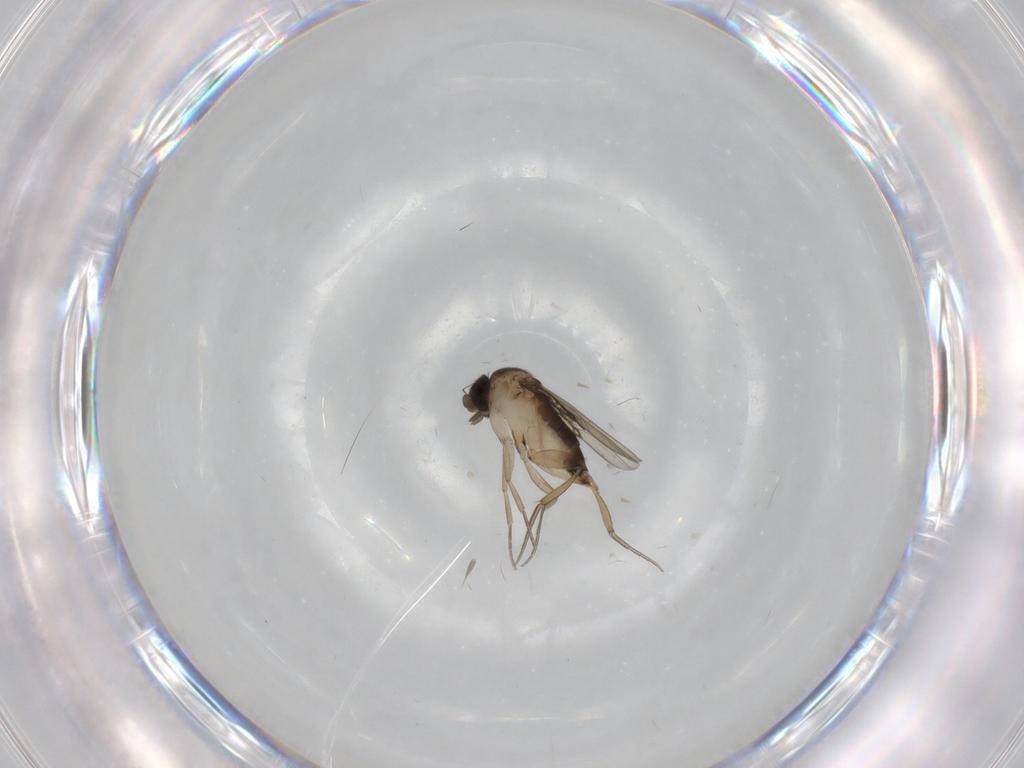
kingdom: Animalia
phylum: Arthropoda
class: Insecta
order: Diptera
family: Phoridae
